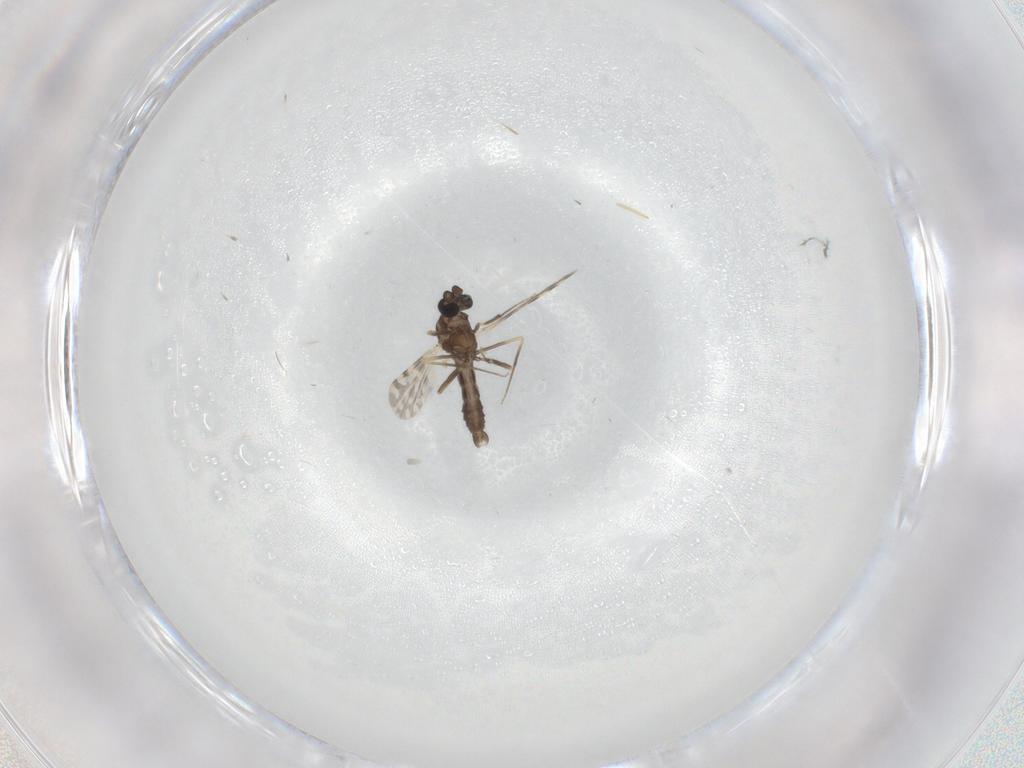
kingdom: Animalia
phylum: Arthropoda
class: Insecta
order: Diptera
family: Ceratopogonidae
